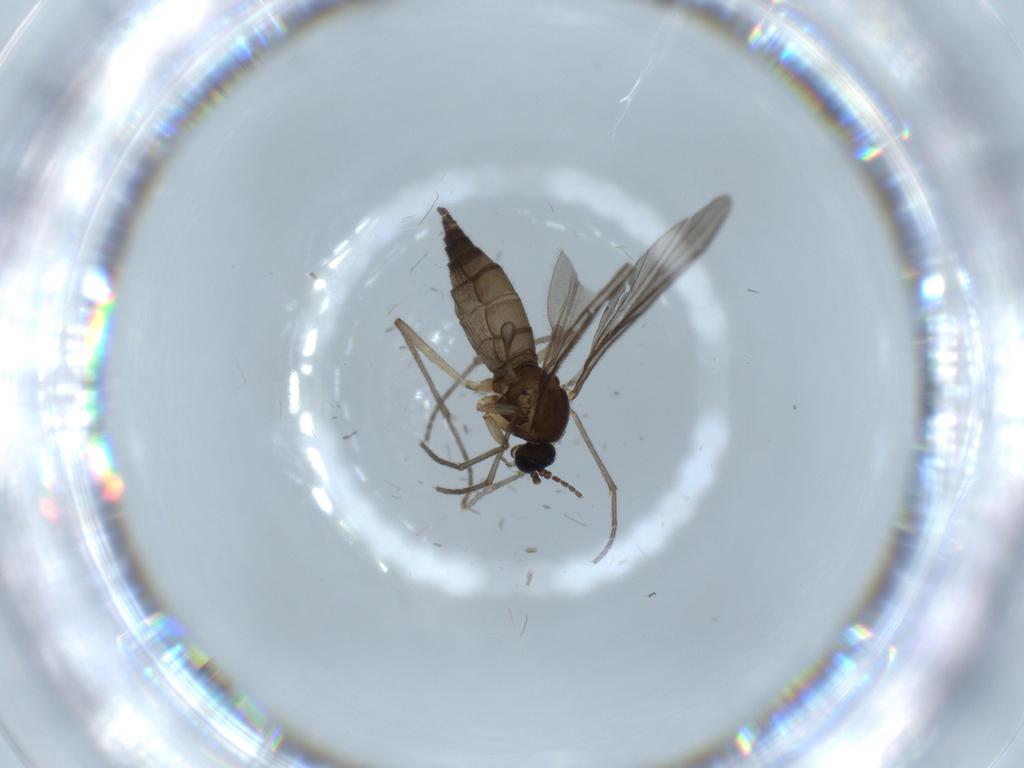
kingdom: Animalia
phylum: Arthropoda
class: Insecta
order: Diptera
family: Sciaridae
